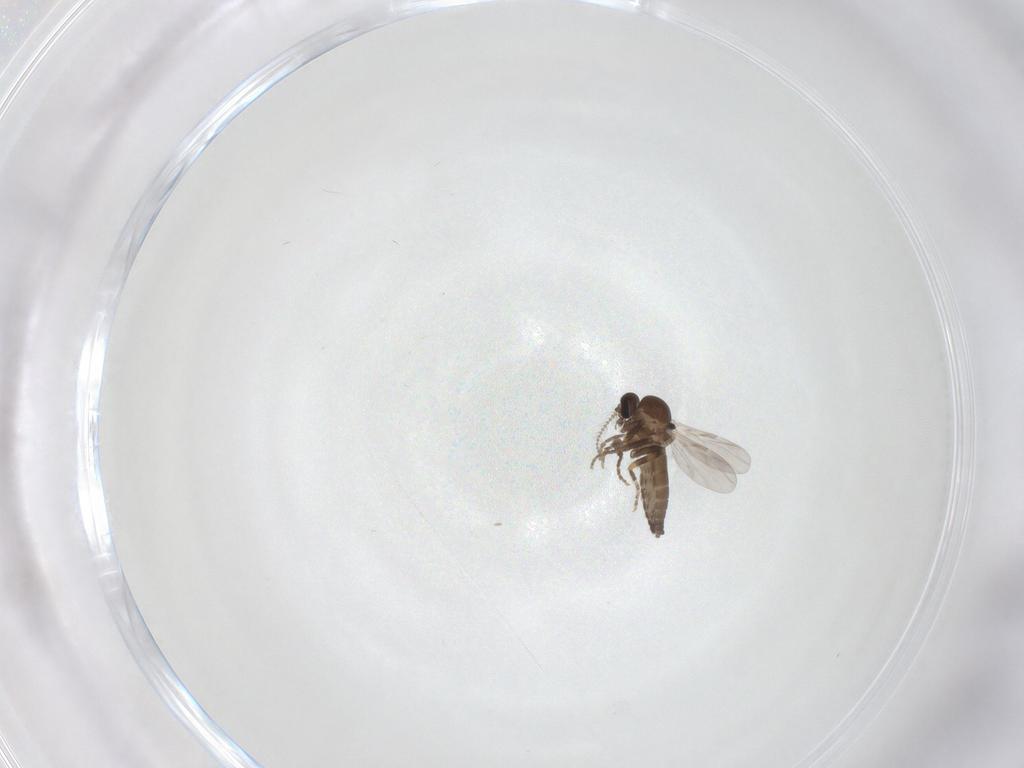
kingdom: Animalia
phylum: Arthropoda
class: Insecta
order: Diptera
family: Ceratopogonidae
